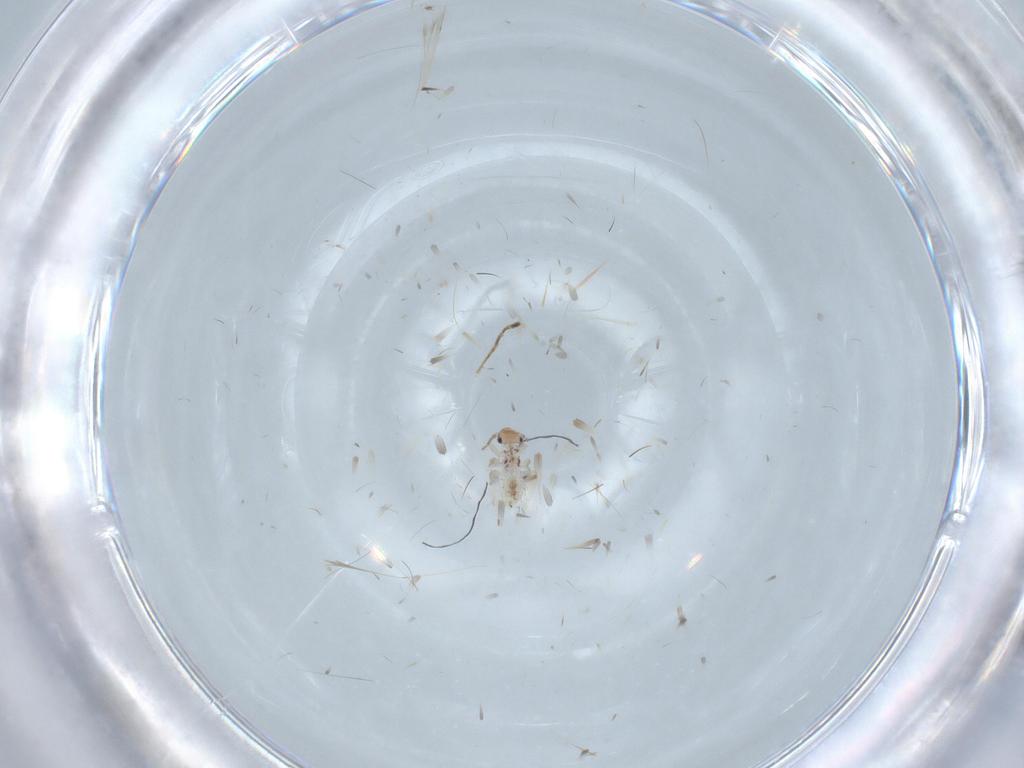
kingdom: Animalia
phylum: Arthropoda
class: Insecta
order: Psocodea
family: Lepidopsocidae
